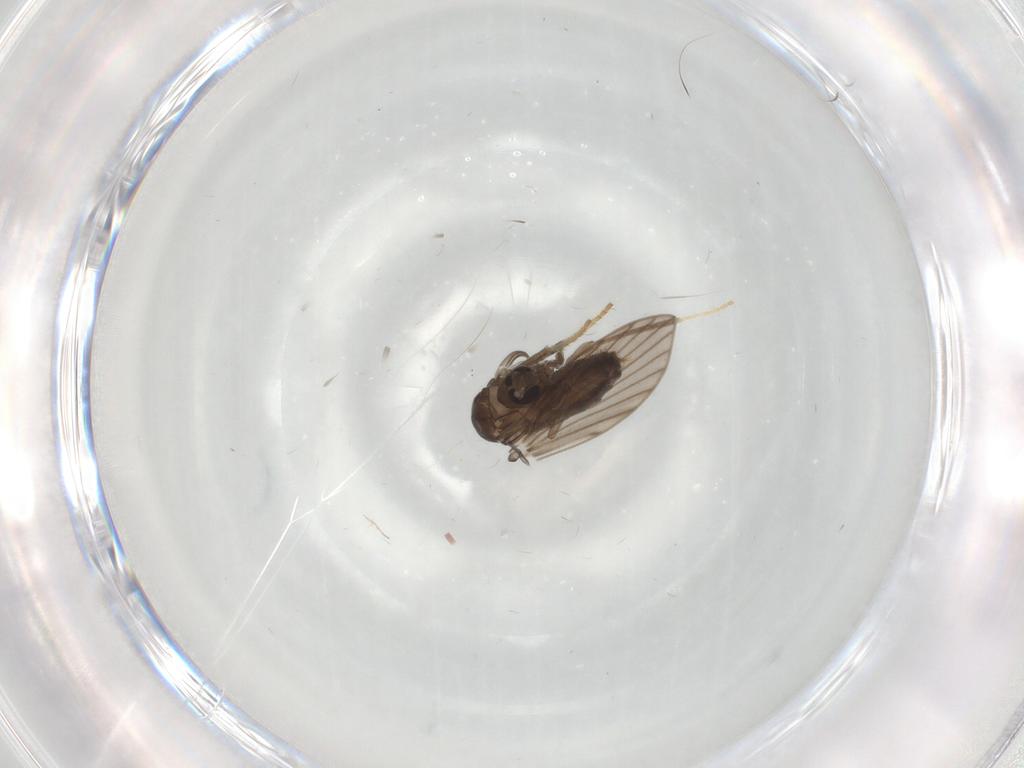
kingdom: Animalia
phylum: Arthropoda
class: Insecta
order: Diptera
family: Psychodidae
